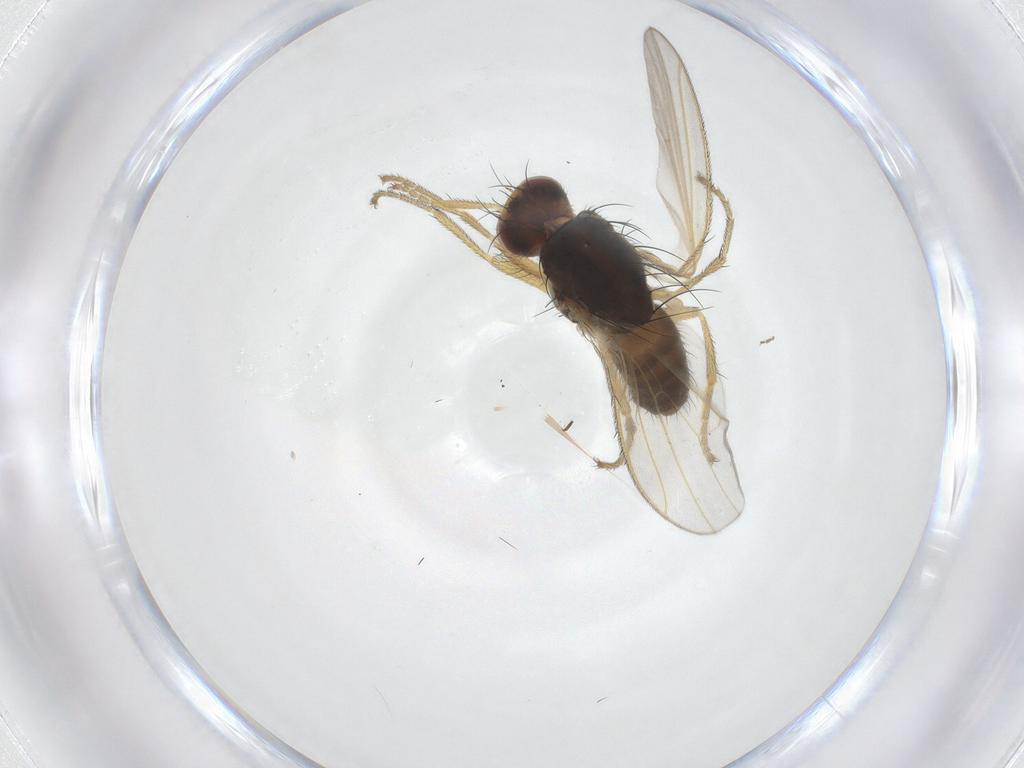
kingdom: Animalia
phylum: Arthropoda
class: Insecta
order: Diptera
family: Heleomyzidae
